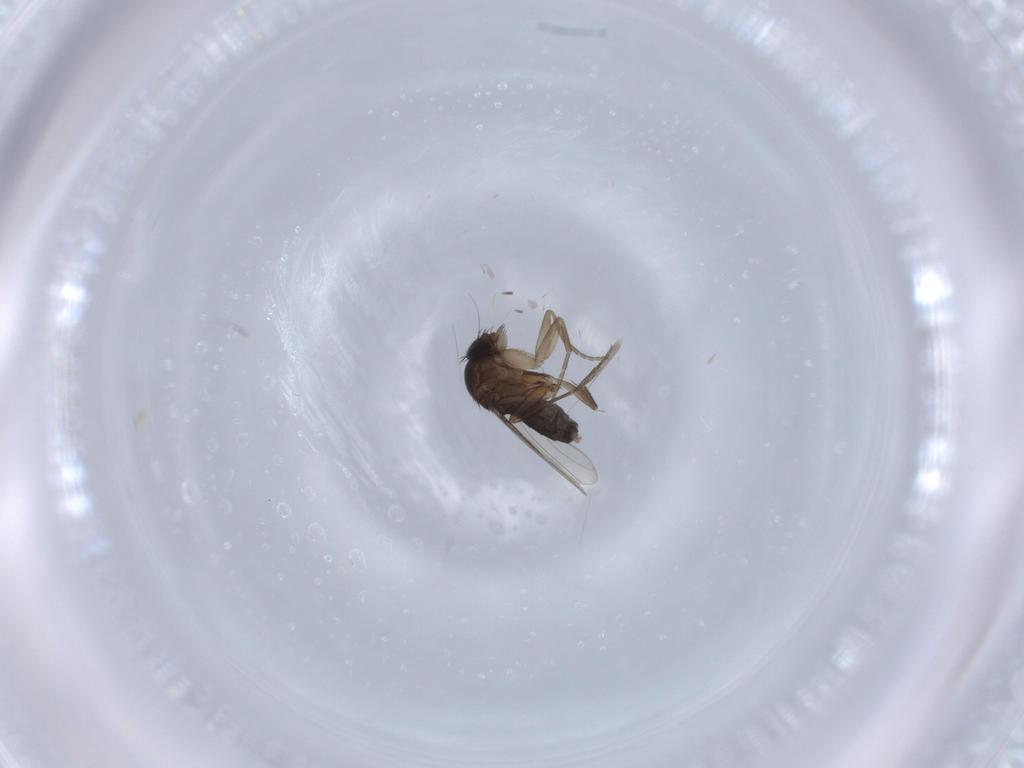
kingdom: Animalia
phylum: Arthropoda
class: Insecta
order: Diptera
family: Phoridae
